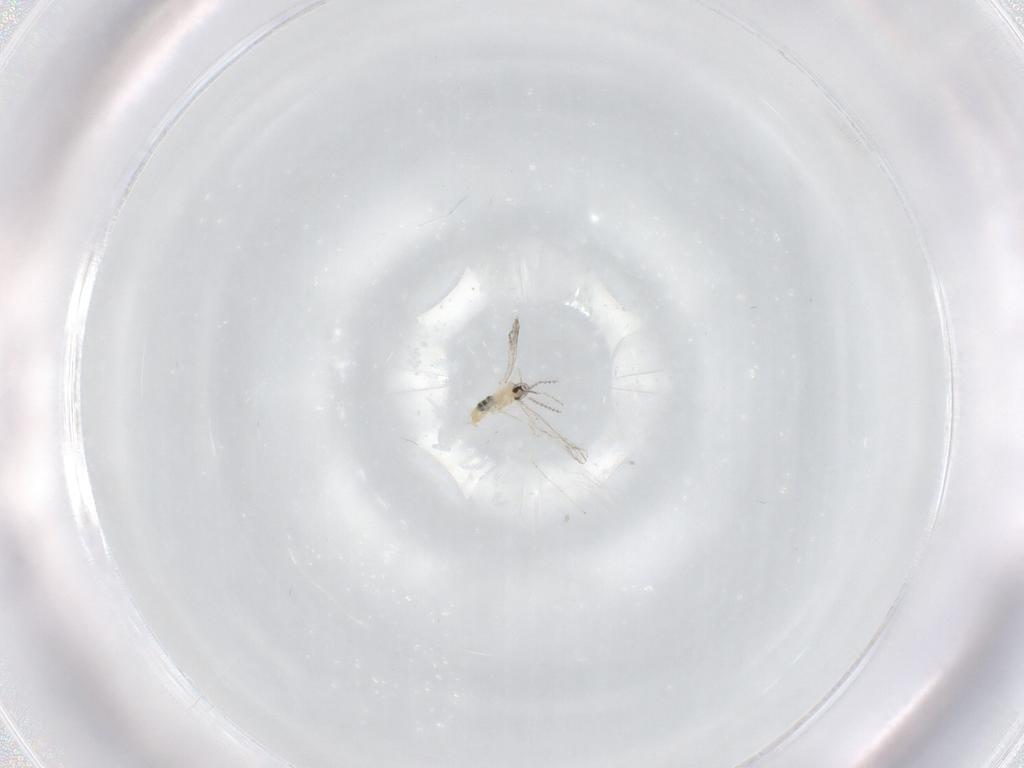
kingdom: Animalia
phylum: Arthropoda
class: Insecta
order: Diptera
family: Cecidomyiidae
